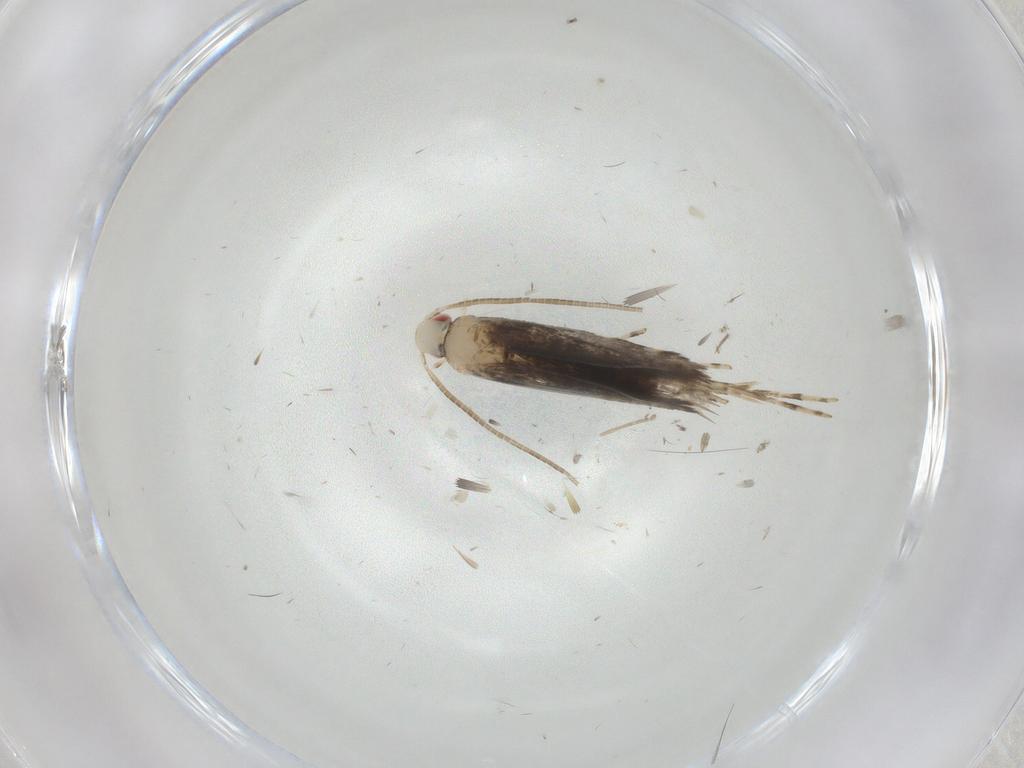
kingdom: Animalia
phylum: Arthropoda
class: Insecta
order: Lepidoptera
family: Gracillariidae
